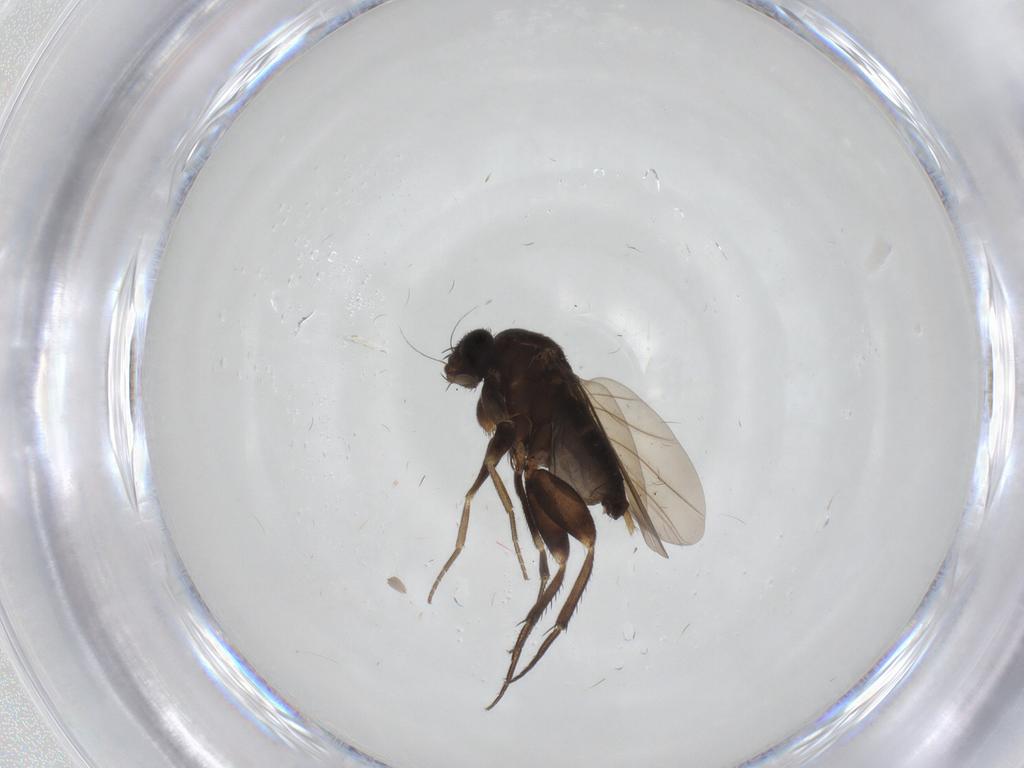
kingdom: Animalia
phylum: Arthropoda
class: Insecta
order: Diptera
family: Phoridae
